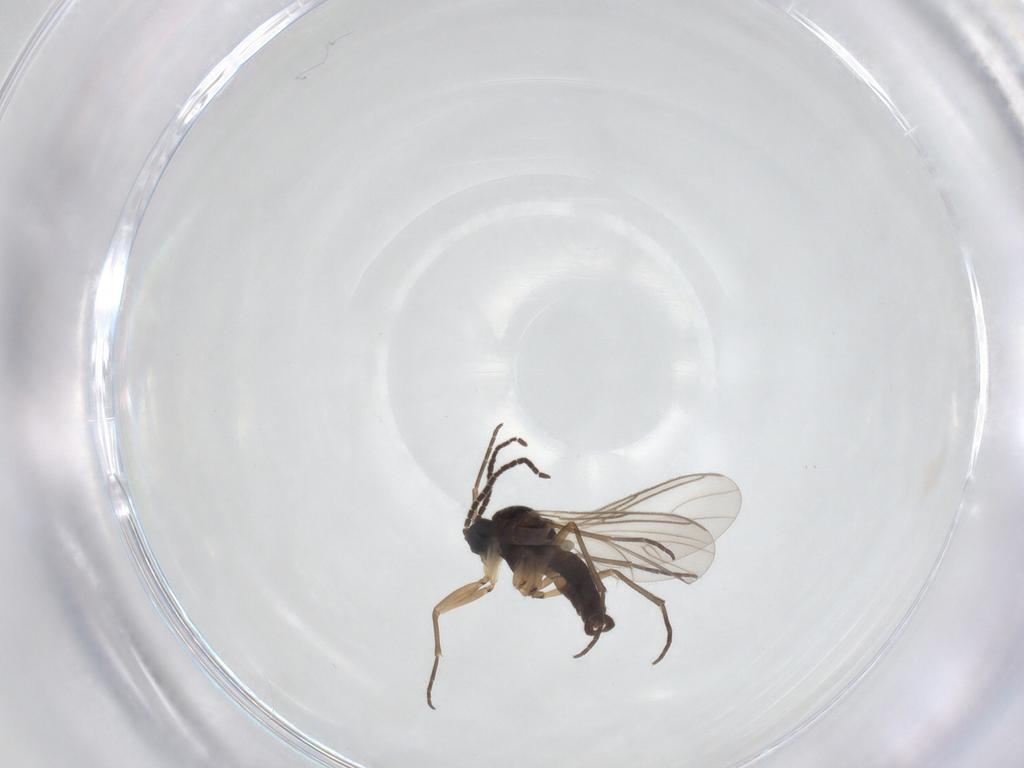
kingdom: Animalia
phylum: Arthropoda
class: Insecta
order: Diptera
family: Sciaridae
